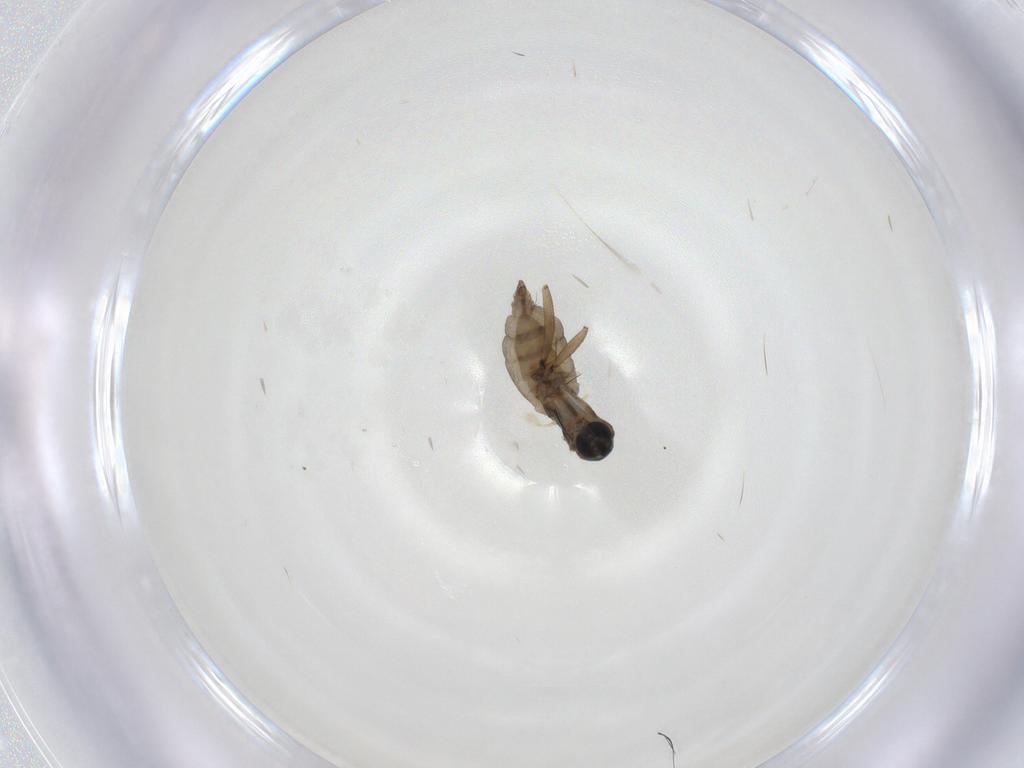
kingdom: Animalia
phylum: Arthropoda
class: Insecta
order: Diptera
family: Sciaridae
